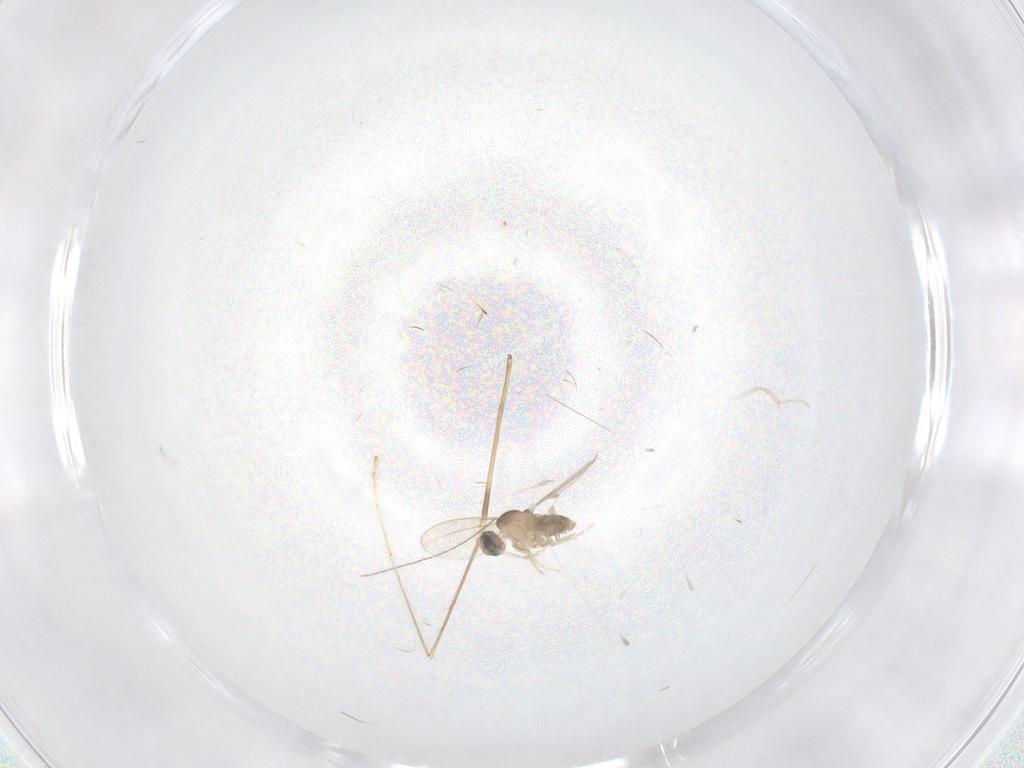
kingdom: Animalia
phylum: Arthropoda
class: Insecta
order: Diptera
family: Cecidomyiidae
